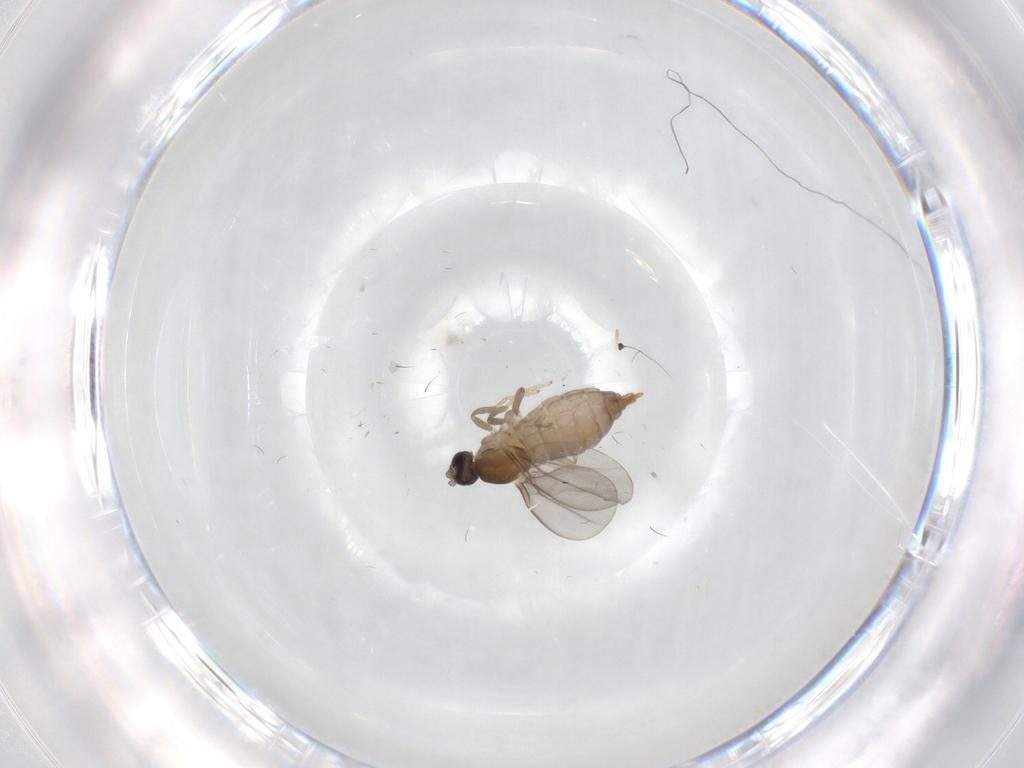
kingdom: Animalia
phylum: Arthropoda
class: Insecta
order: Diptera
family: Cecidomyiidae
